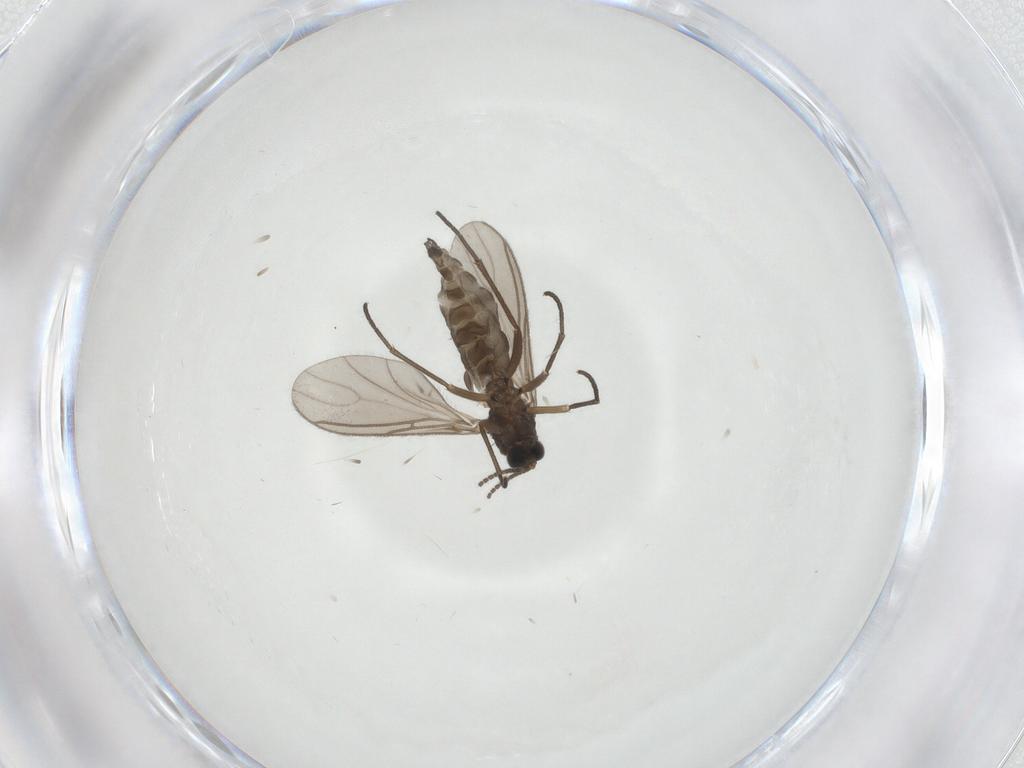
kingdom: Animalia
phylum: Arthropoda
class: Insecta
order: Diptera
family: Sciaridae
